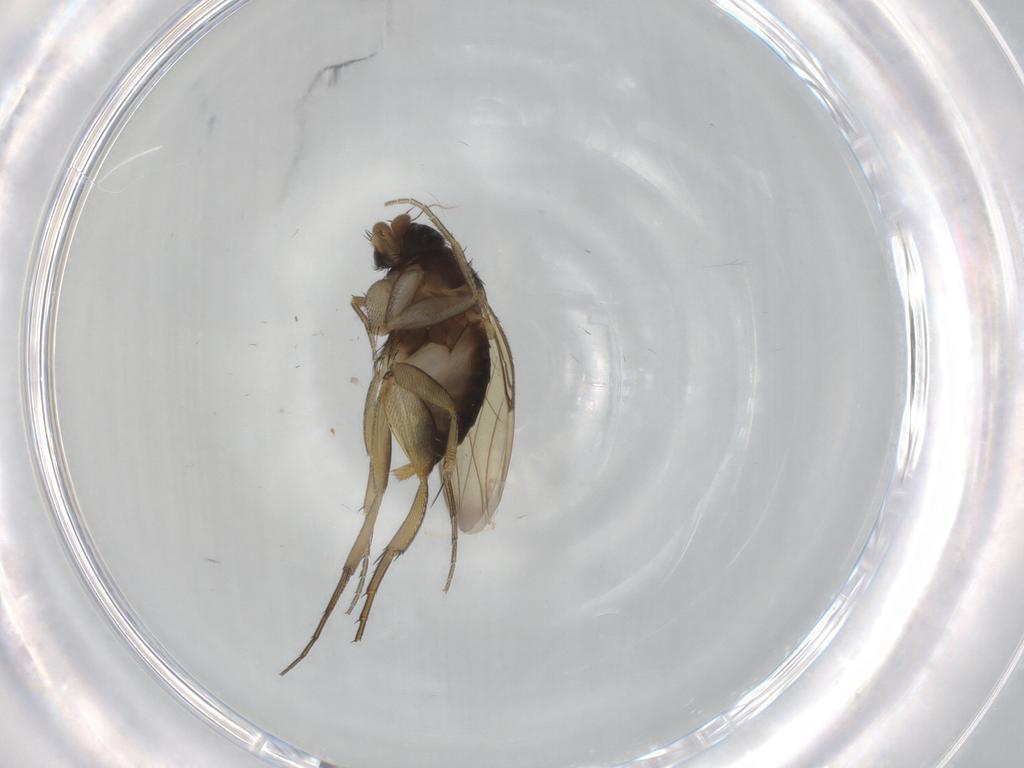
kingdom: Animalia
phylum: Arthropoda
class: Insecta
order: Diptera
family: Phoridae
